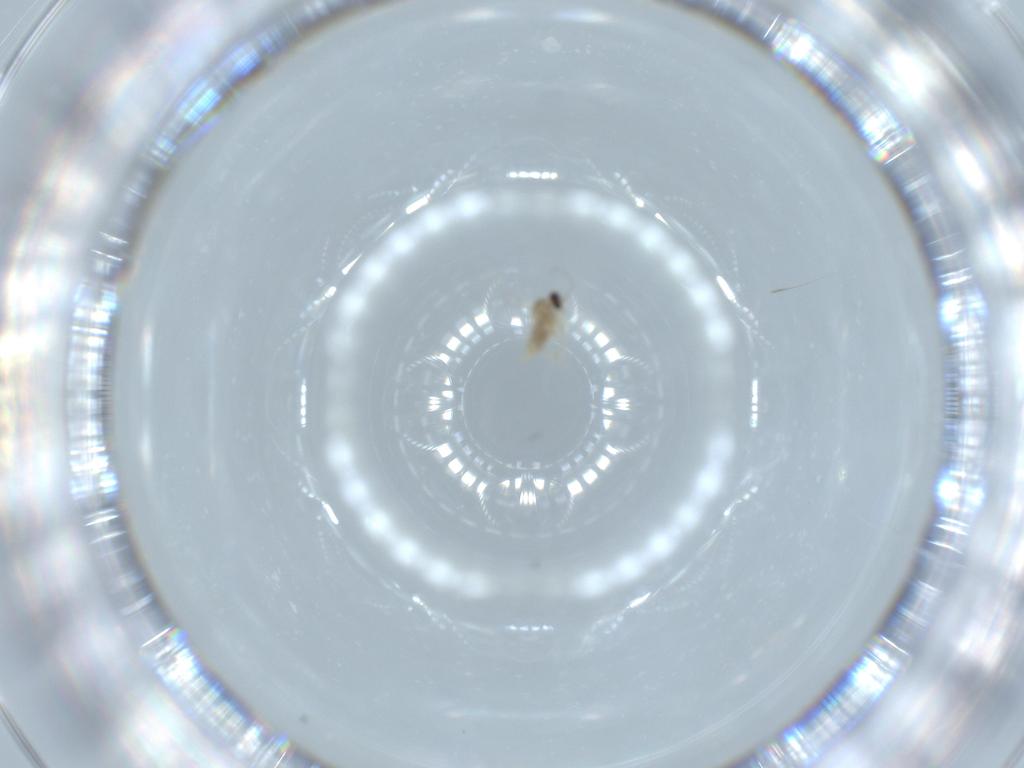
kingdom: Animalia
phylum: Arthropoda
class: Insecta
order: Diptera
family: Cecidomyiidae
